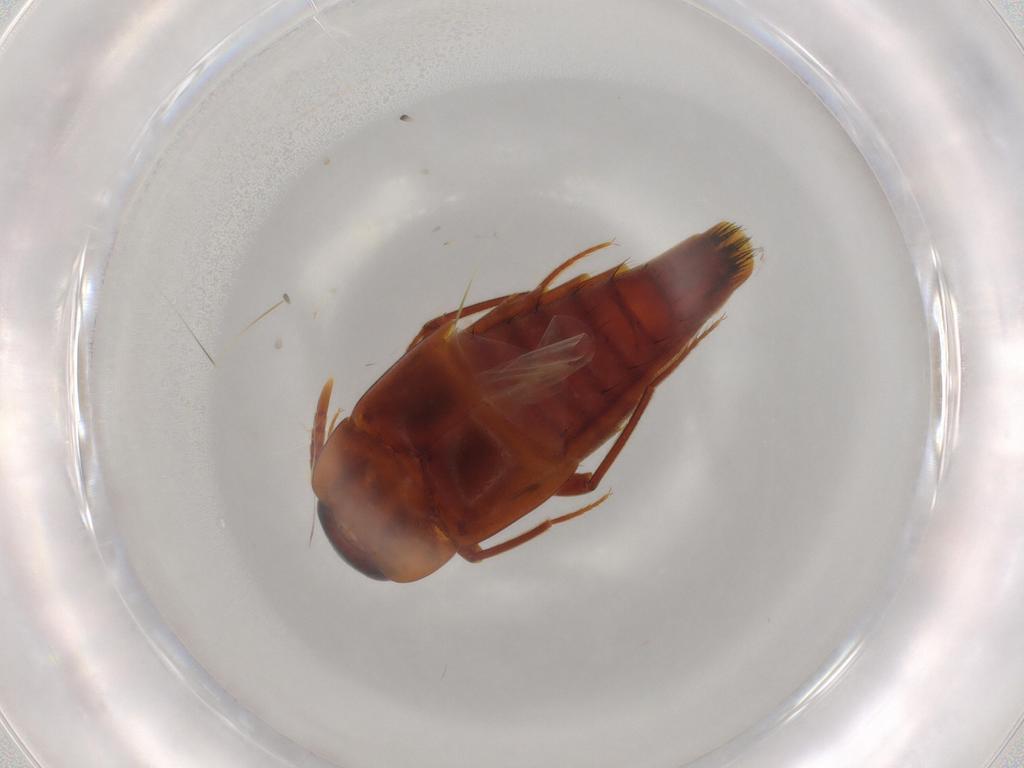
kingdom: Animalia
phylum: Arthropoda
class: Insecta
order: Coleoptera
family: Staphylinidae
